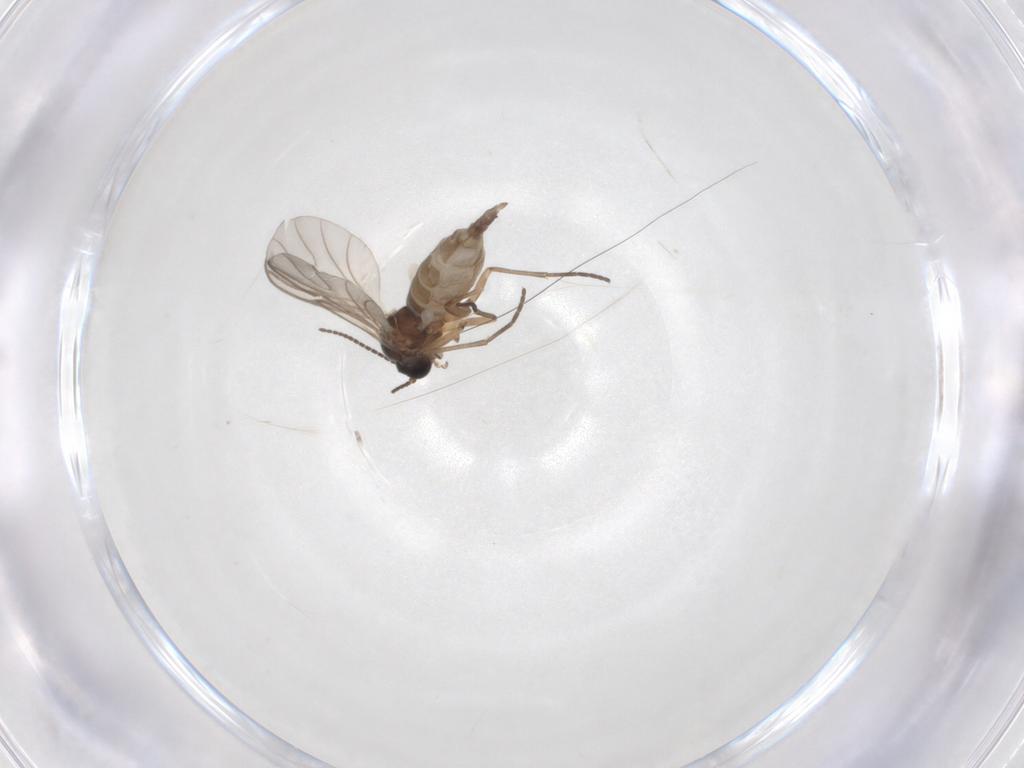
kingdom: Animalia
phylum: Arthropoda
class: Insecta
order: Diptera
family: Sciaridae
